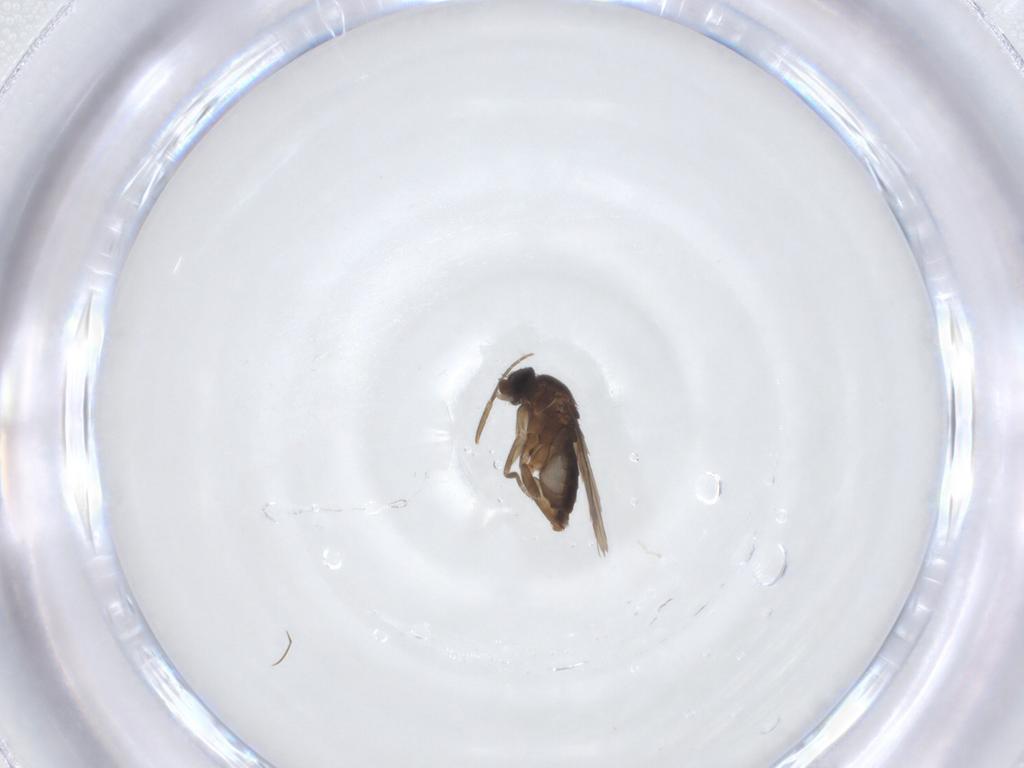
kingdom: Animalia
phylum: Arthropoda
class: Insecta
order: Diptera
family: Phoridae
